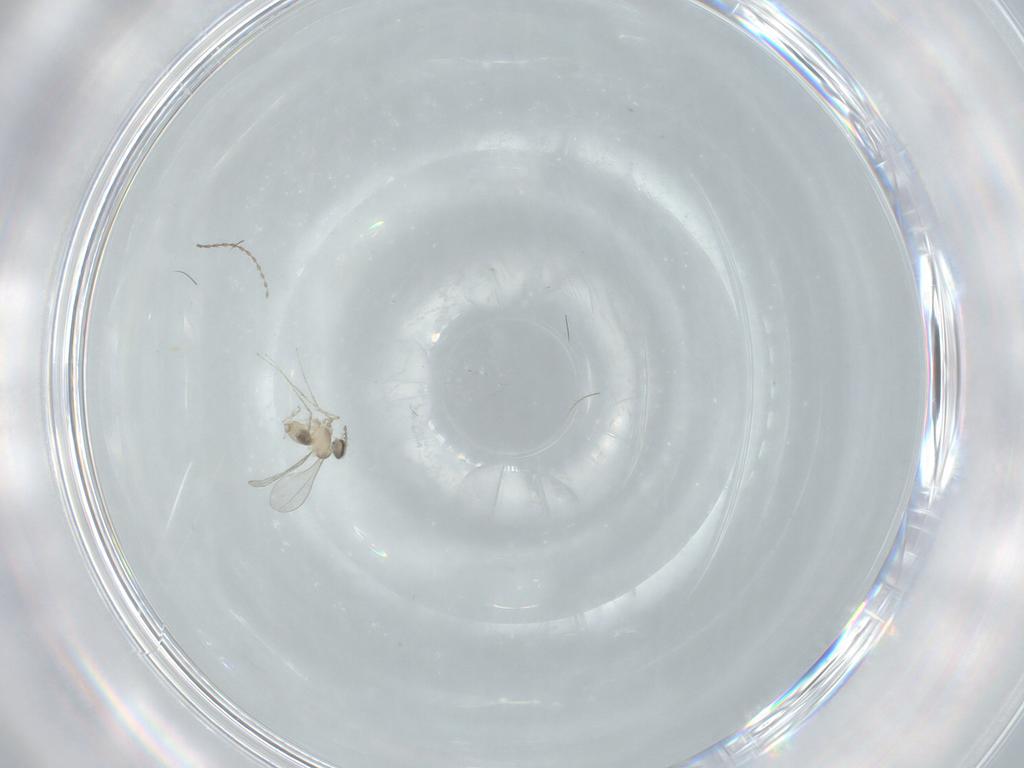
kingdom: Animalia
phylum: Arthropoda
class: Insecta
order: Diptera
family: Cecidomyiidae
